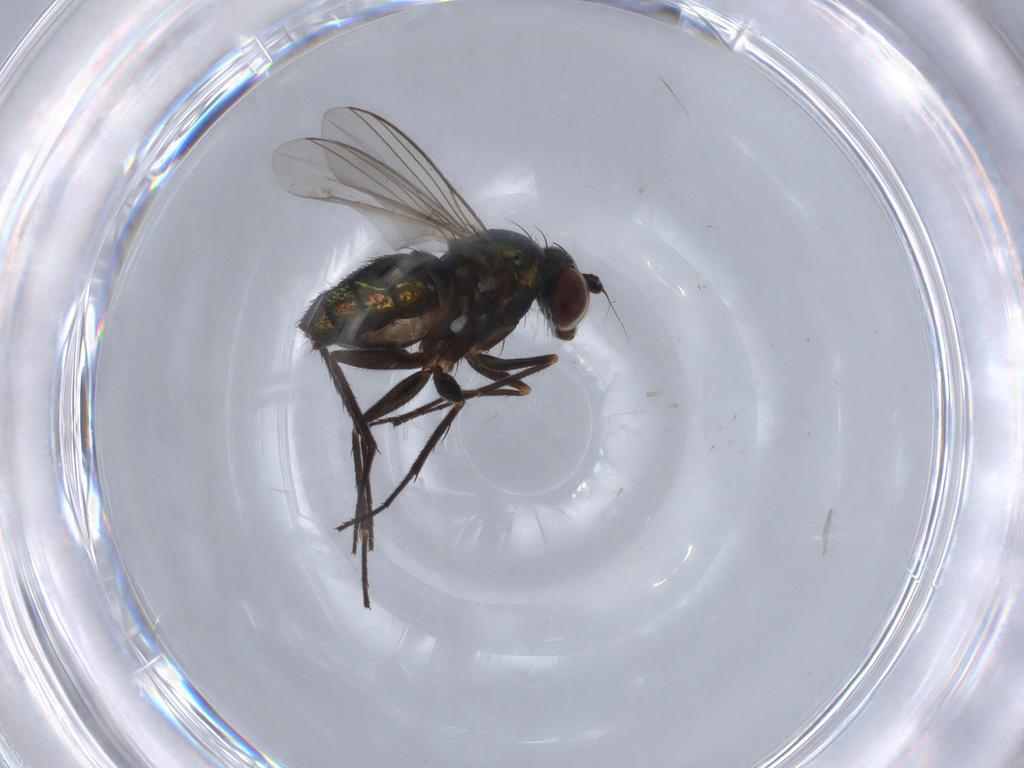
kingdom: Animalia
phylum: Arthropoda
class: Insecta
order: Diptera
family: Dolichopodidae
